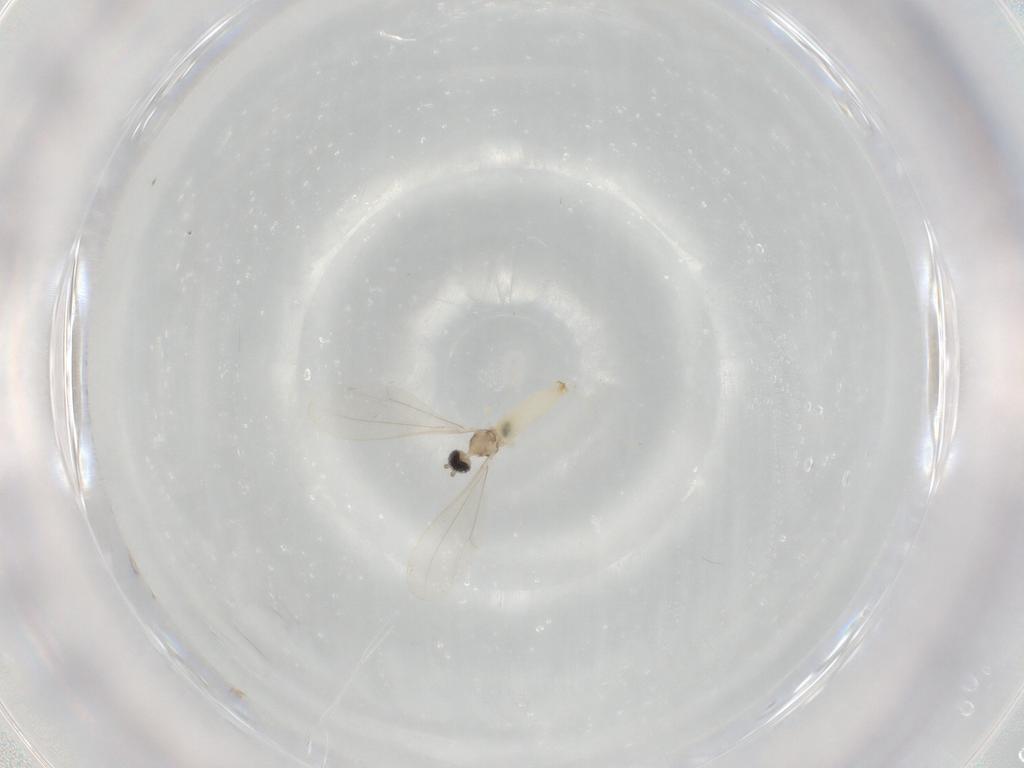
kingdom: Animalia
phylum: Arthropoda
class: Insecta
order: Diptera
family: Cecidomyiidae
